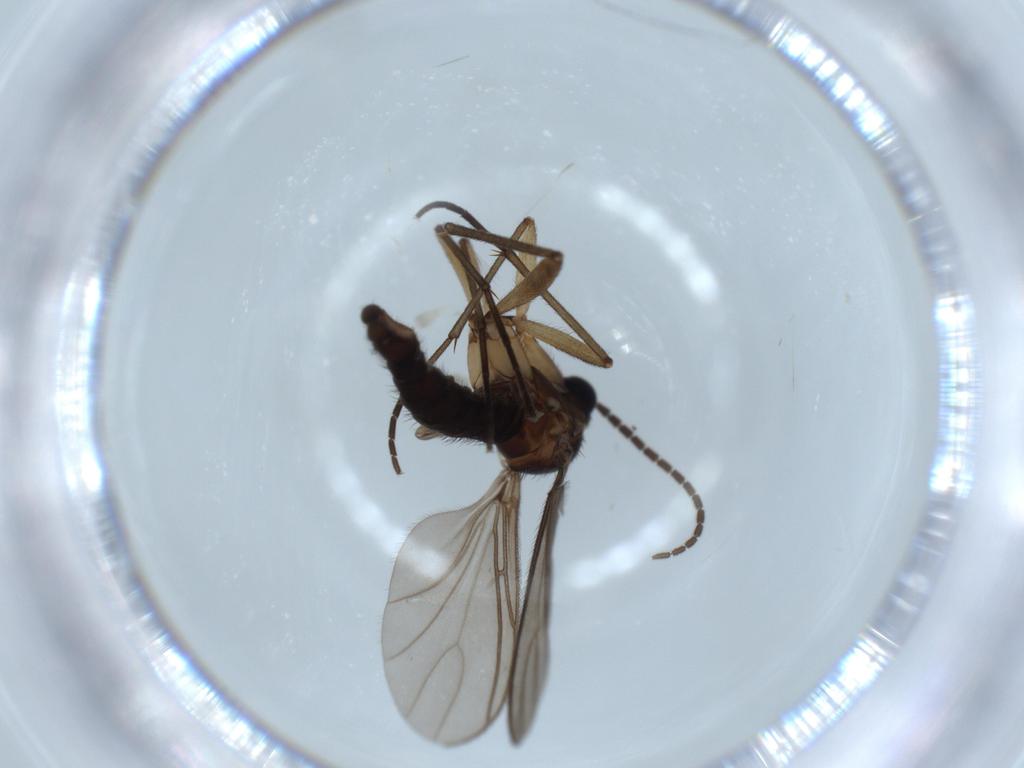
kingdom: Animalia
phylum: Arthropoda
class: Insecta
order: Diptera
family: Sciaridae
